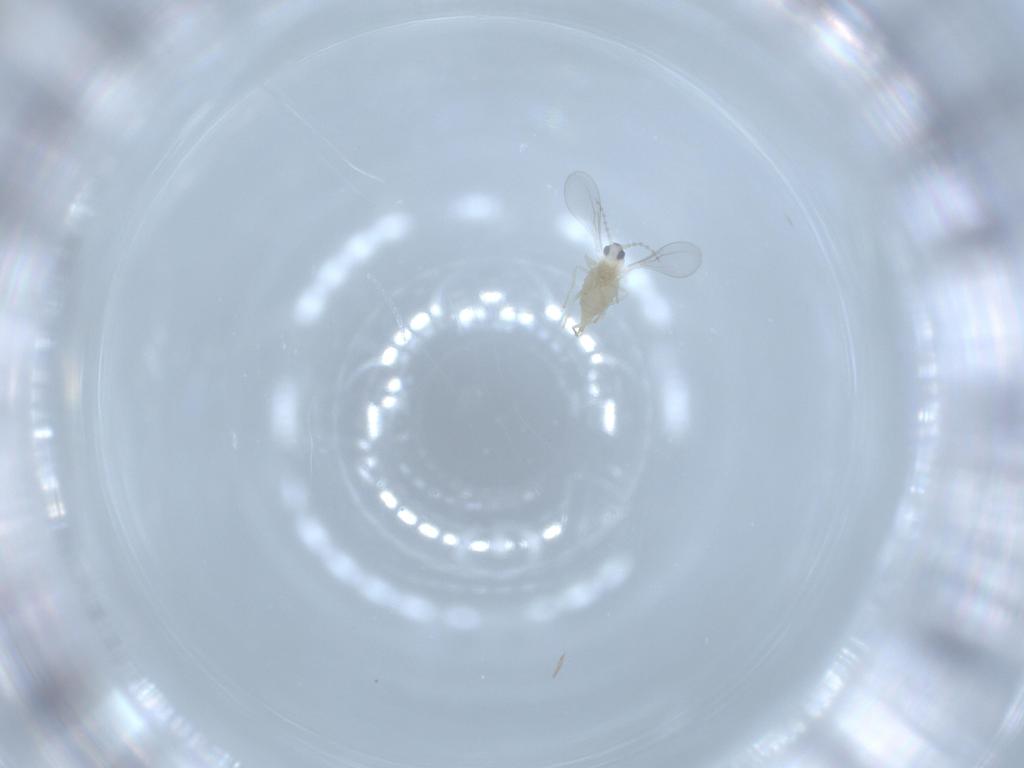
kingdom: Animalia
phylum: Arthropoda
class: Insecta
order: Diptera
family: Cecidomyiidae
